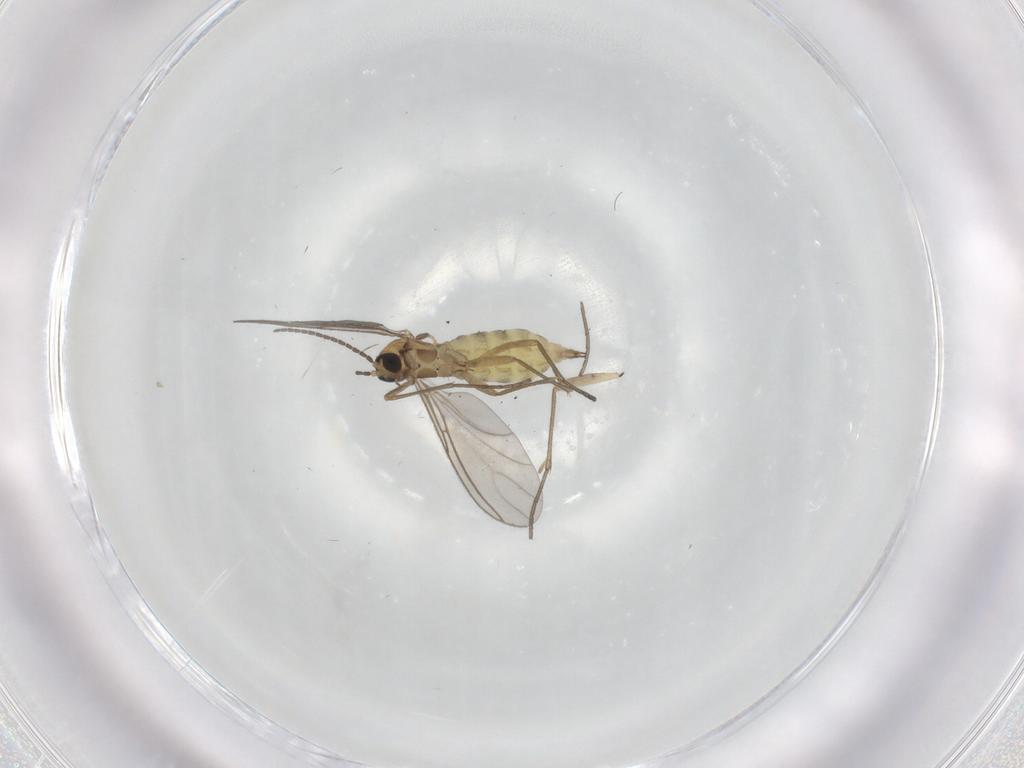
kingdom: Animalia
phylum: Arthropoda
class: Insecta
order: Diptera
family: Sciaridae
